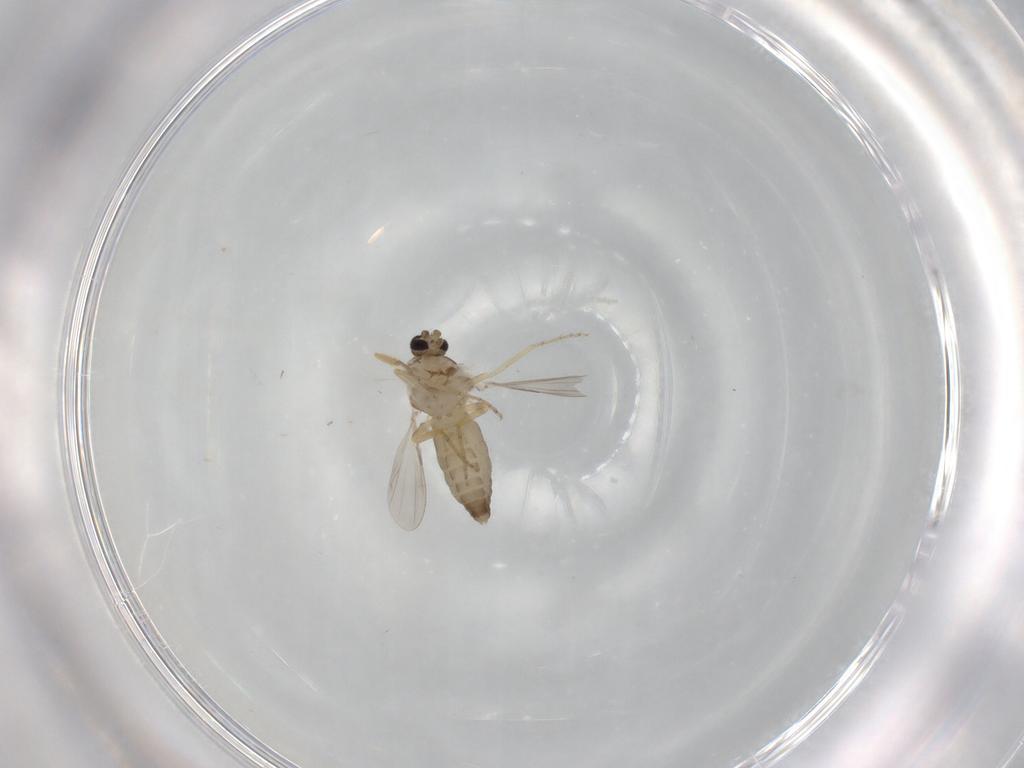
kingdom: Animalia
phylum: Arthropoda
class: Insecta
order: Diptera
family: Ceratopogonidae
